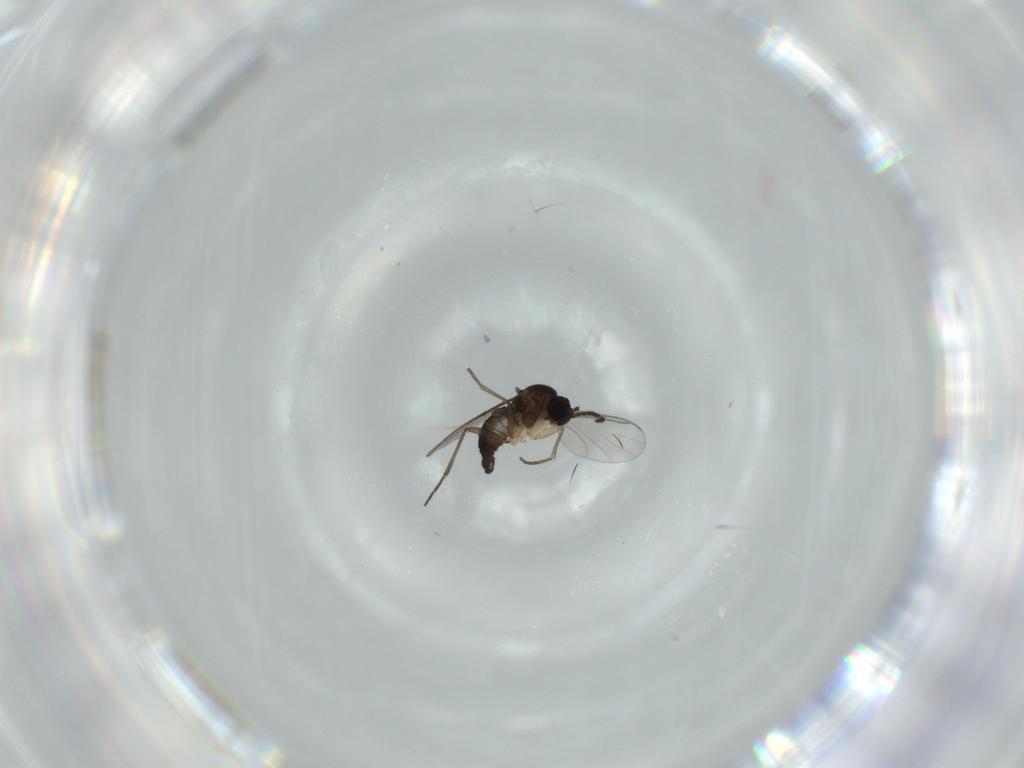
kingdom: Animalia
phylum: Arthropoda
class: Insecta
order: Diptera
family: Sciaridae
